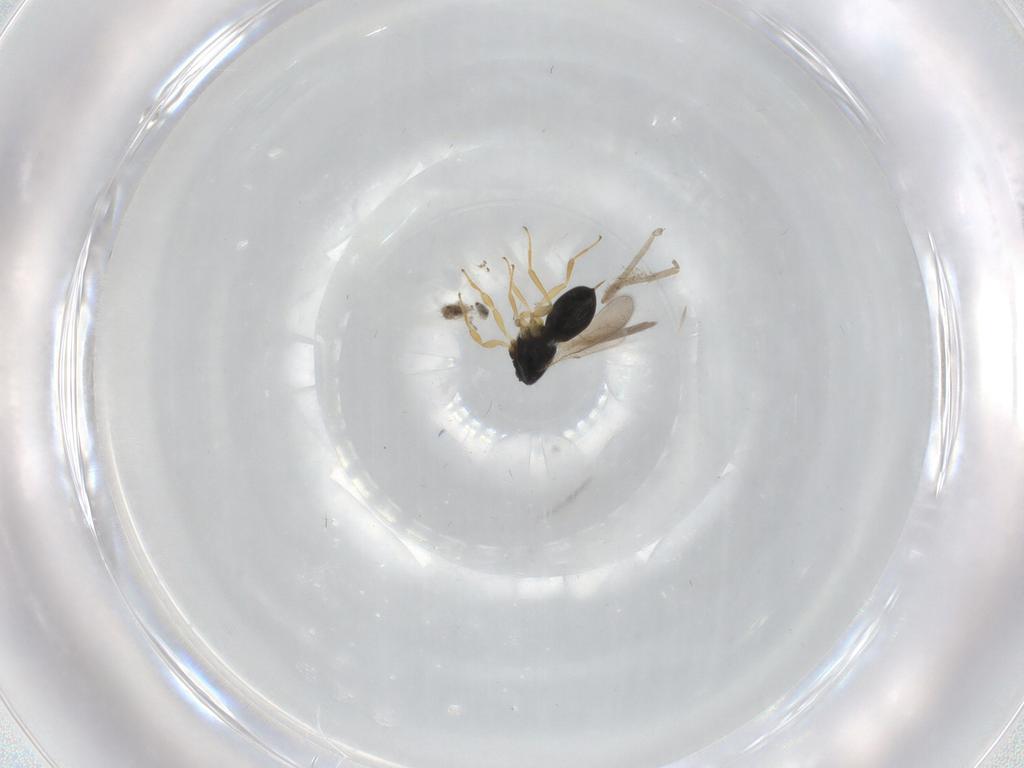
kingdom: Animalia
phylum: Arthropoda
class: Insecta
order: Hymenoptera
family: Scelionidae
